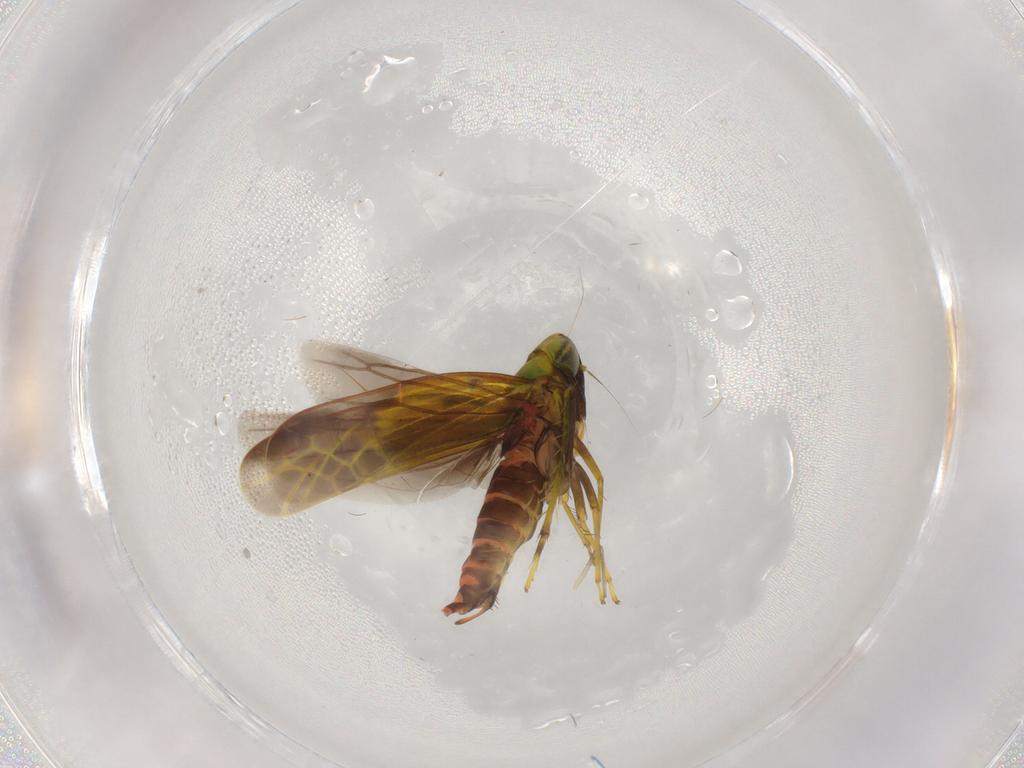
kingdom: Animalia
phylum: Arthropoda
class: Insecta
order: Hemiptera
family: Cicadellidae
